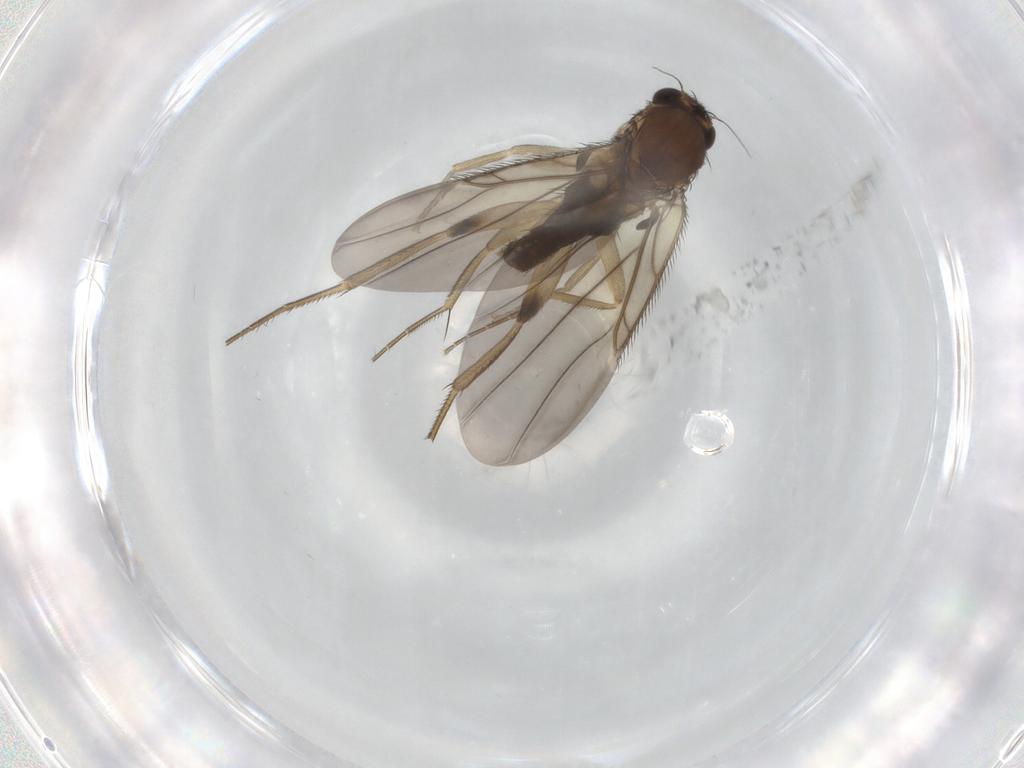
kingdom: Animalia
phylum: Arthropoda
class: Insecta
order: Diptera
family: Phoridae
